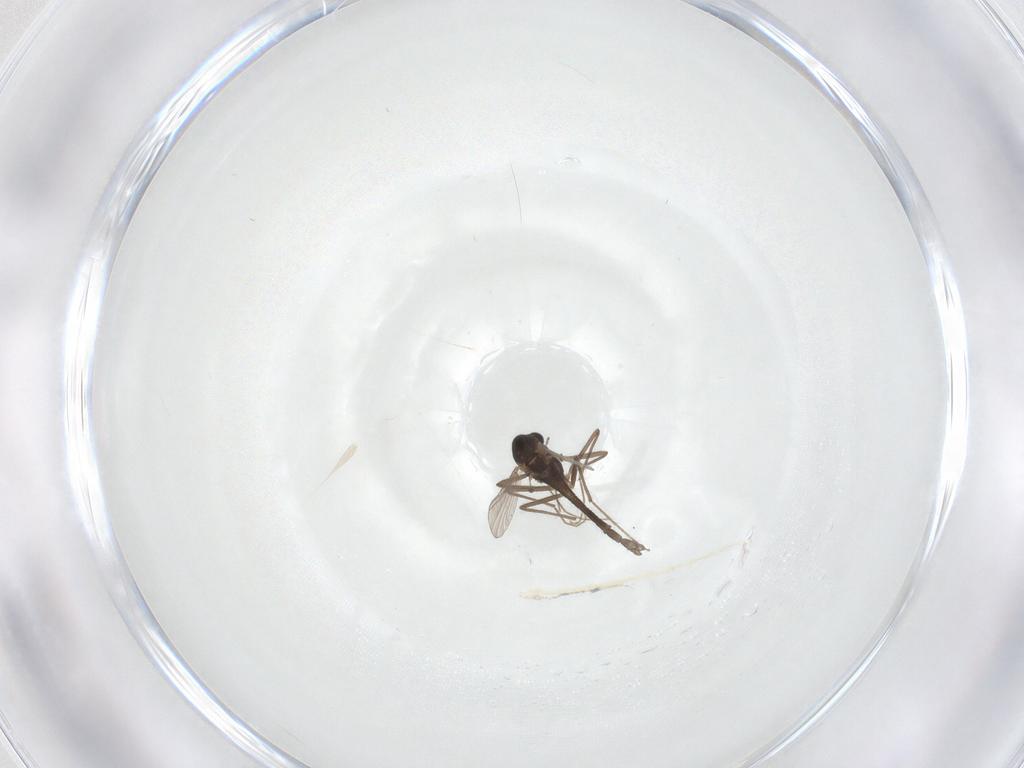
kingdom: Animalia
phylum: Arthropoda
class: Insecta
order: Diptera
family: Chironomidae
